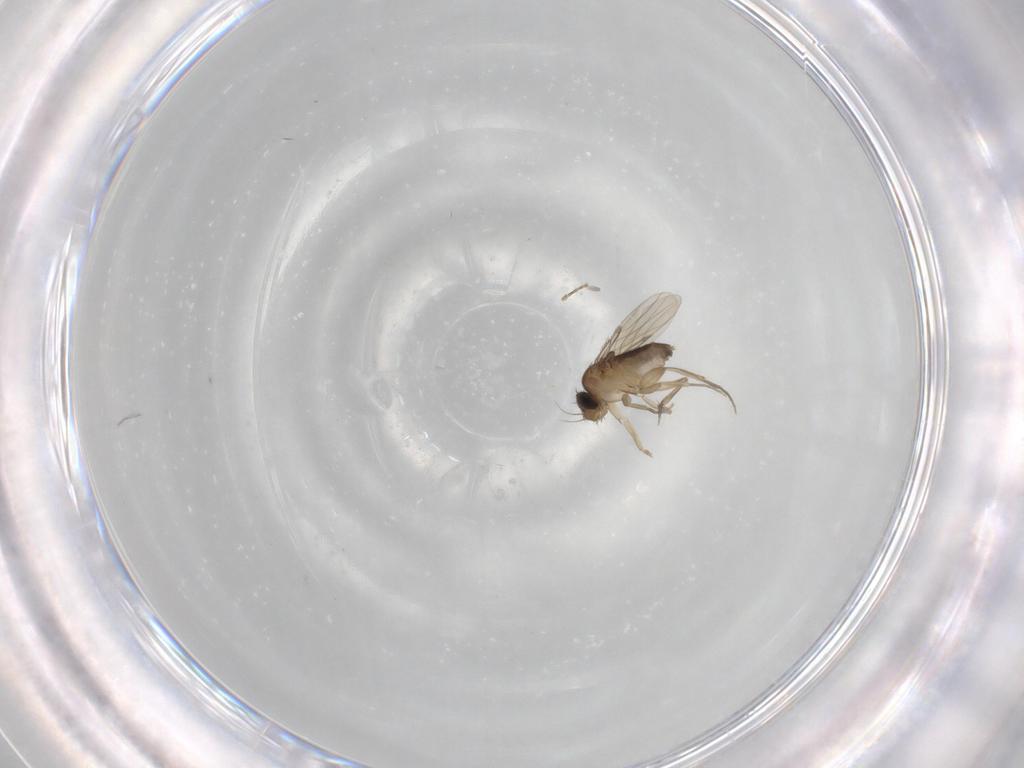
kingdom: Animalia
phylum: Arthropoda
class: Insecta
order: Diptera
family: Phoridae
